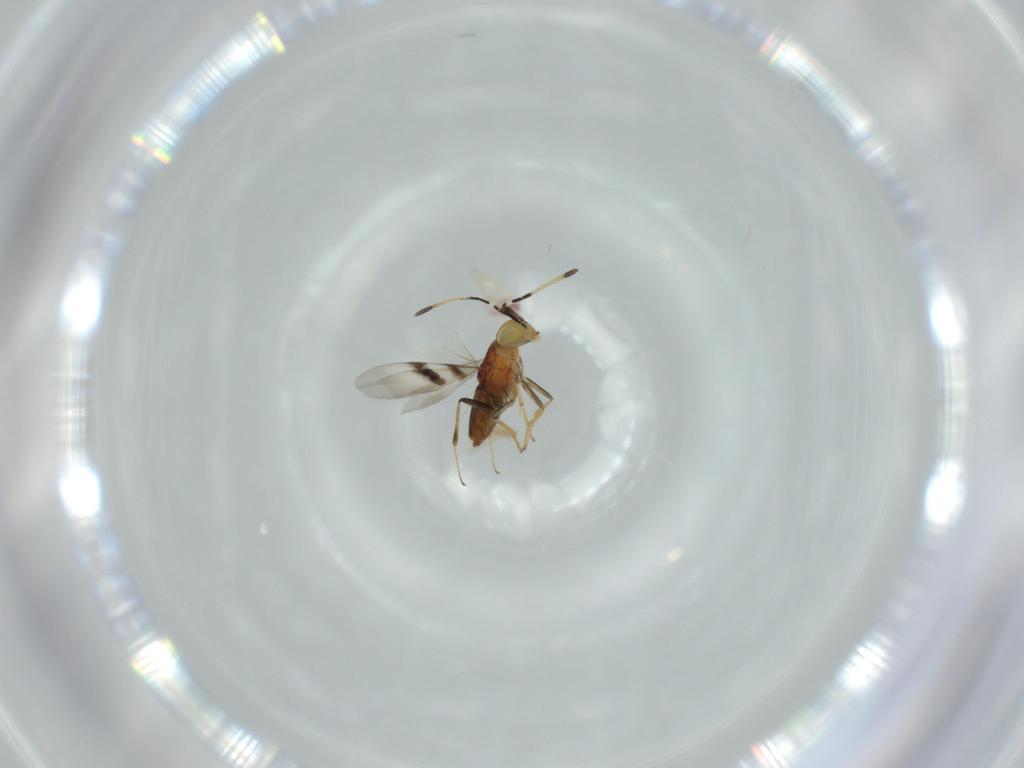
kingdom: Animalia
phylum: Arthropoda
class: Insecta
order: Hymenoptera
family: Encyrtidae
